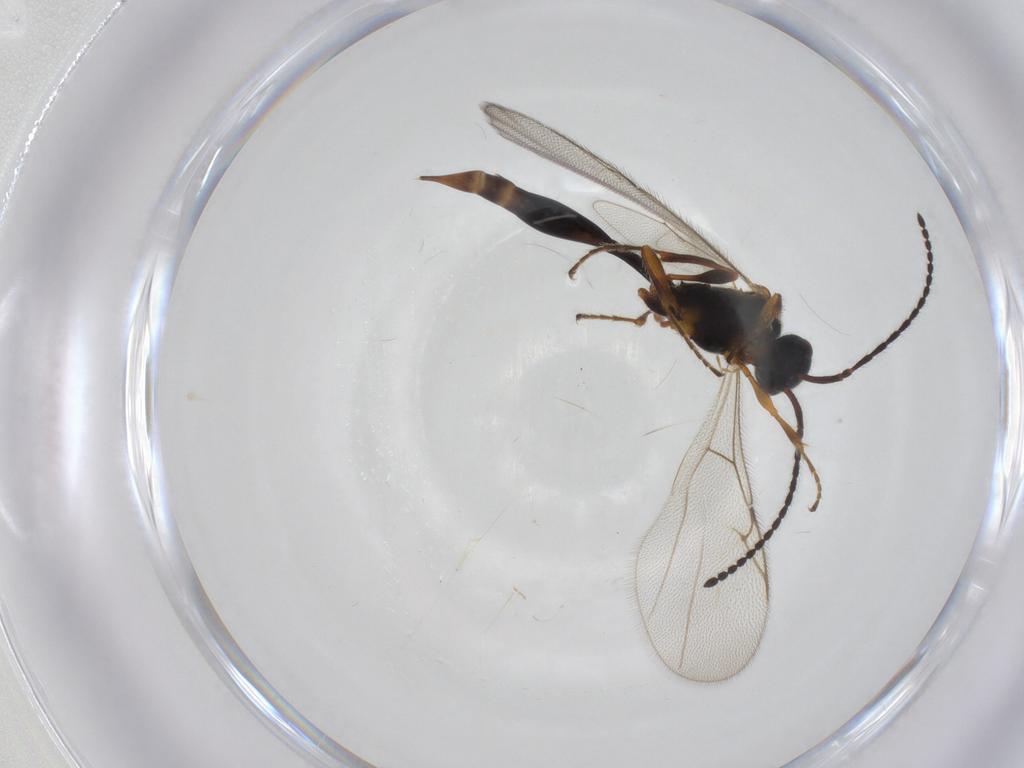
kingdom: Animalia
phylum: Arthropoda
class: Insecta
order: Hymenoptera
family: Diapriidae
